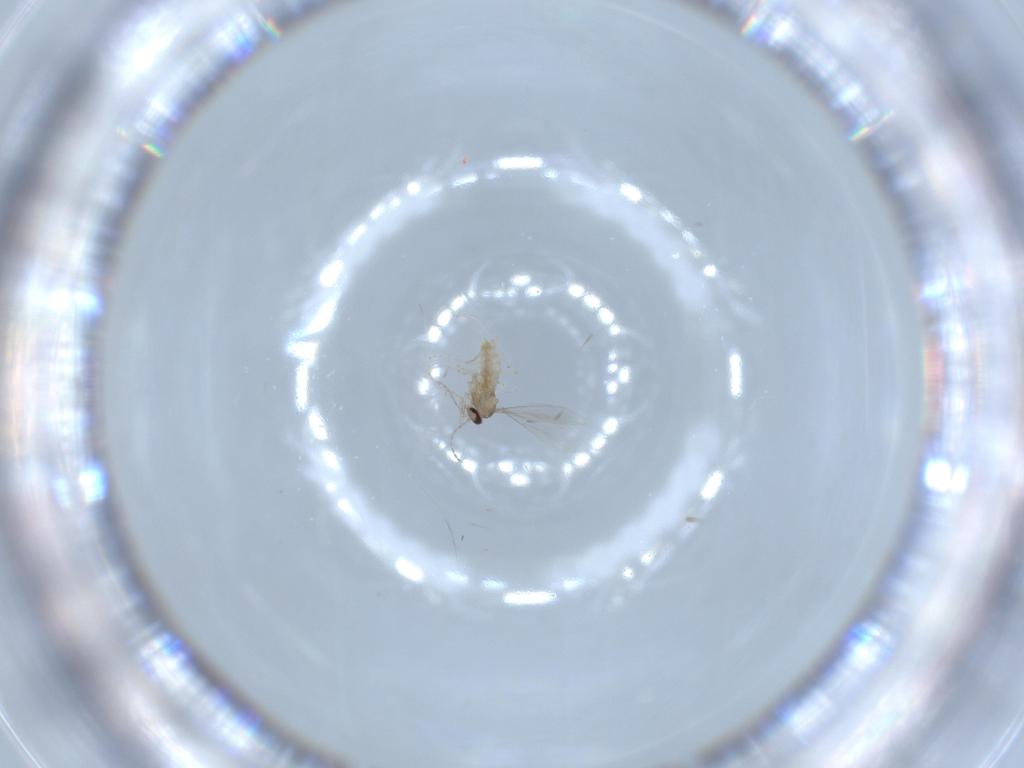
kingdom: Animalia
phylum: Arthropoda
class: Insecta
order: Diptera
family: Cecidomyiidae
